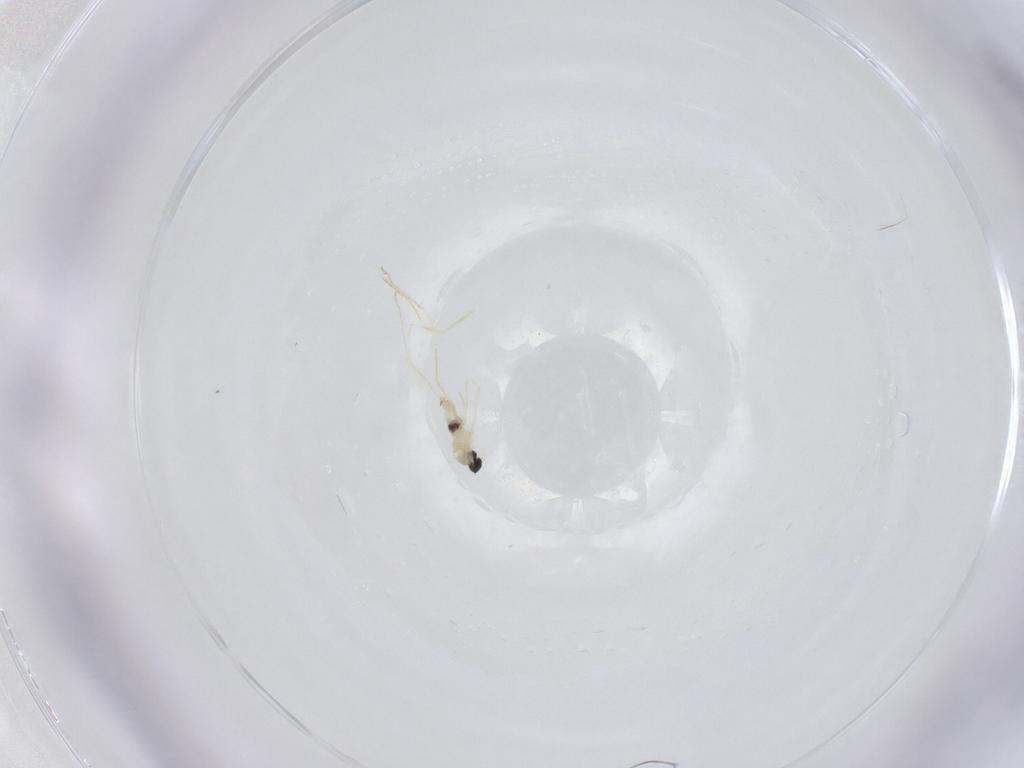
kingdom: Animalia
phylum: Arthropoda
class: Insecta
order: Diptera
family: Cecidomyiidae
